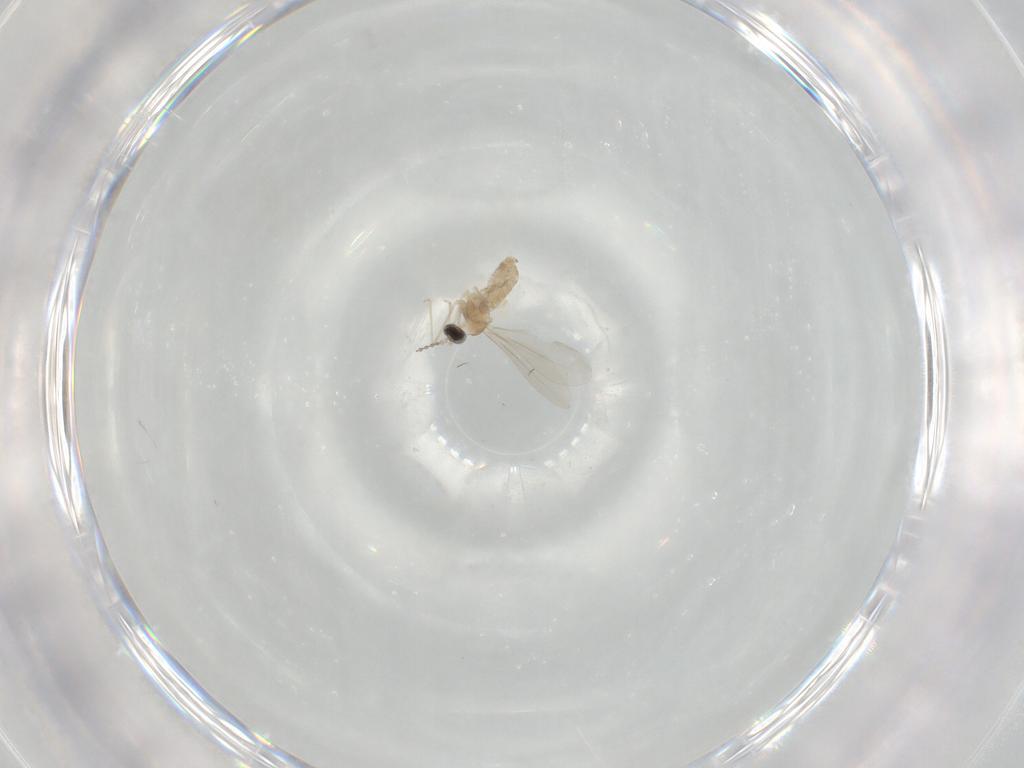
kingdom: Animalia
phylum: Arthropoda
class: Insecta
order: Diptera
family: Cecidomyiidae
